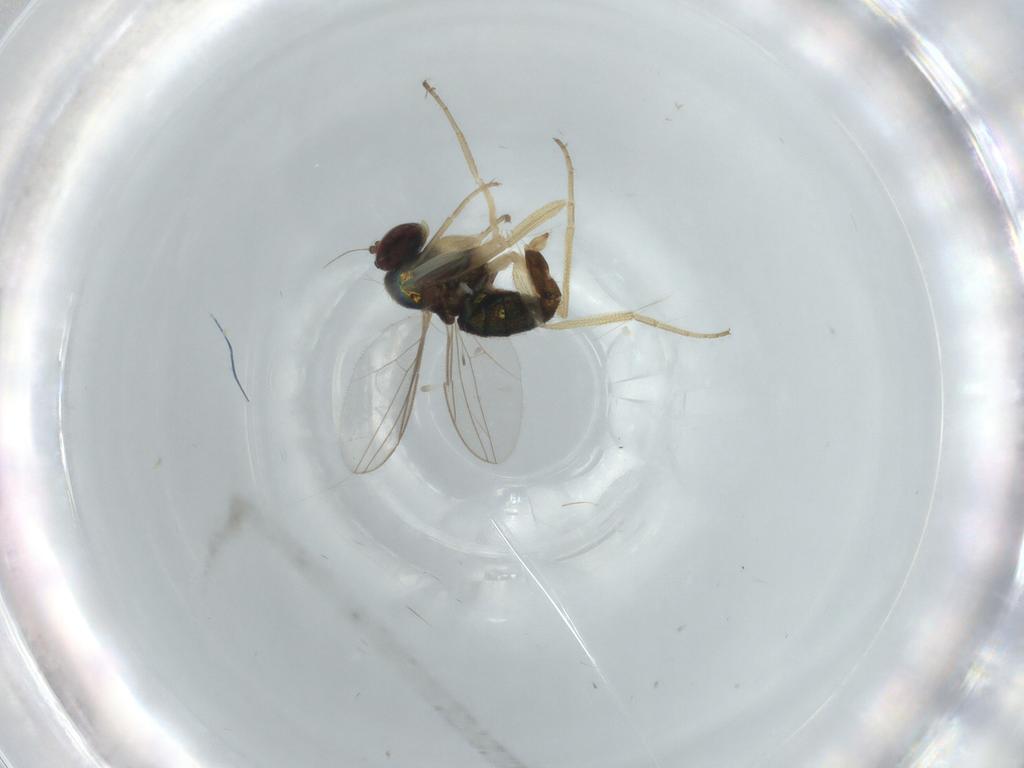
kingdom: Animalia
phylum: Arthropoda
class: Insecta
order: Diptera
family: Dolichopodidae
